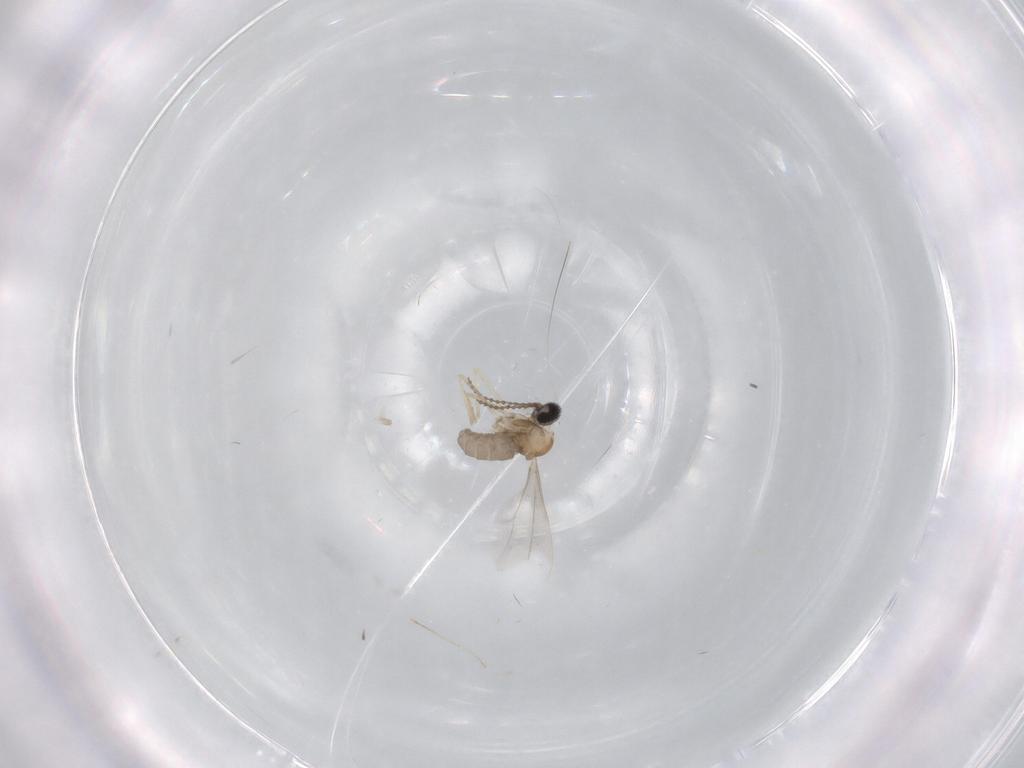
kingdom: Animalia
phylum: Arthropoda
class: Insecta
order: Diptera
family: Cecidomyiidae
